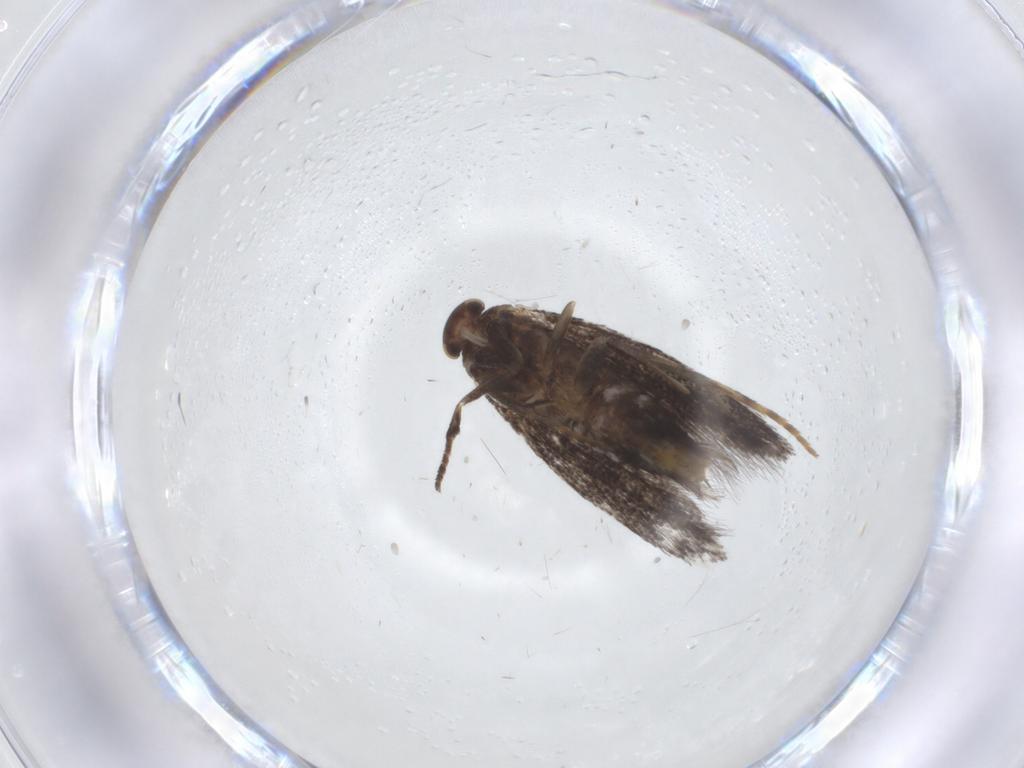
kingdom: Animalia
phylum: Arthropoda
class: Insecta
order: Lepidoptera
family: Elachistidae
